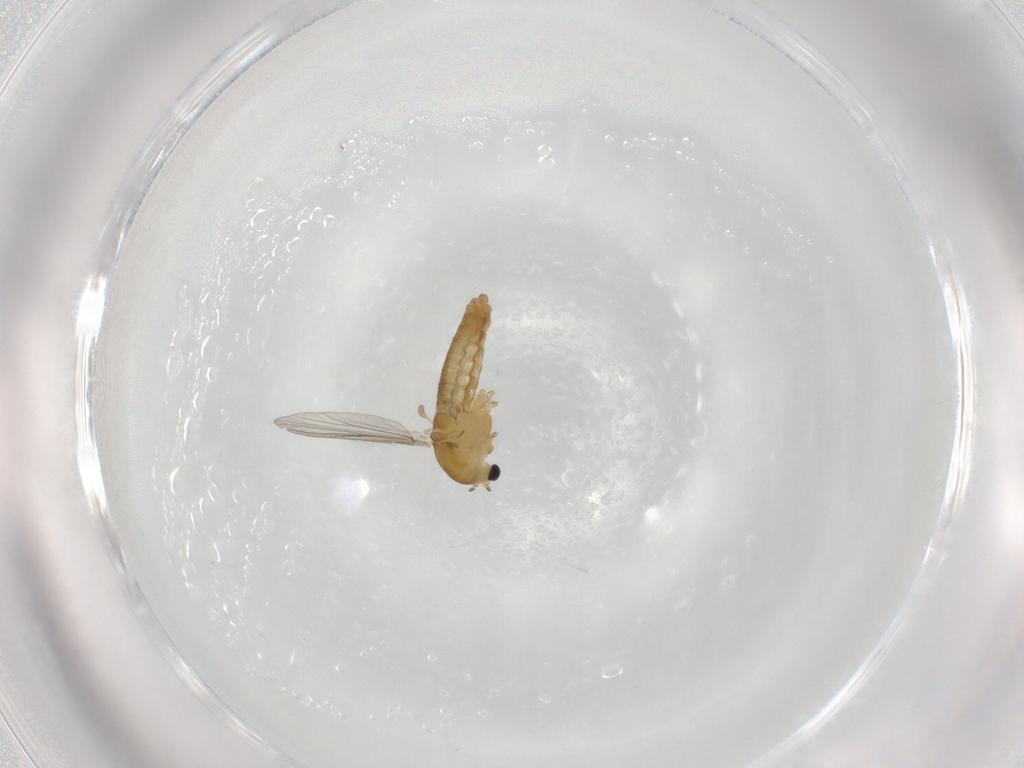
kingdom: Animalia
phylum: Arthropoda
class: Insecta
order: Diptera
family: Chironomidae
